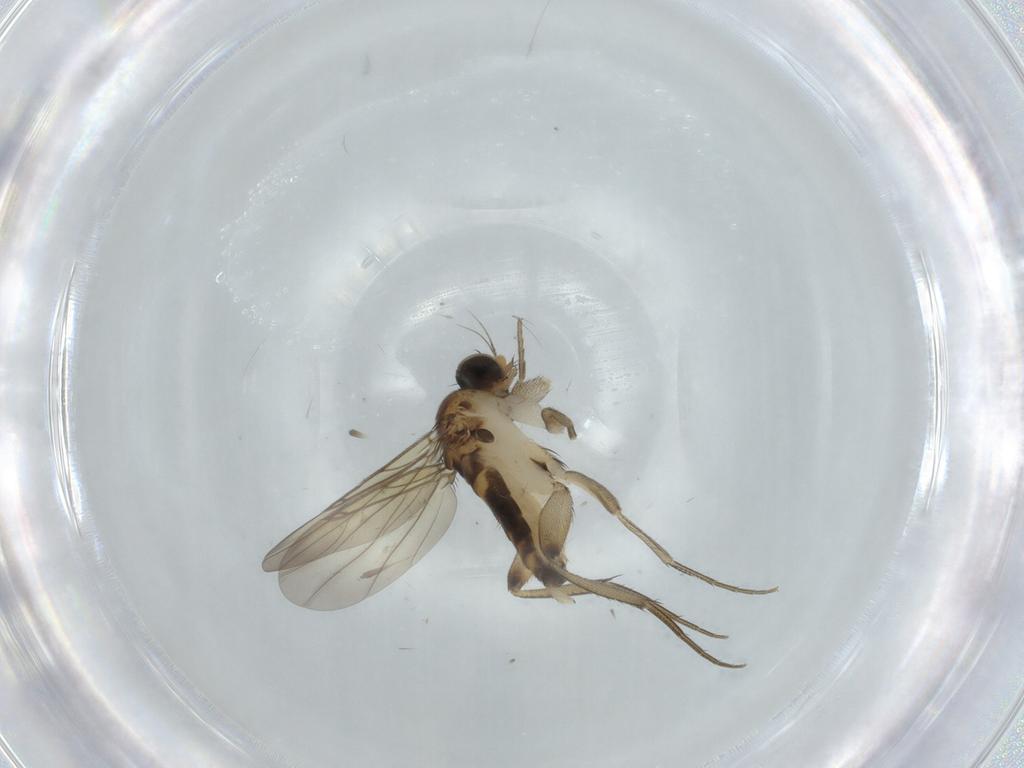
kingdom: Animalia
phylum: Arthropoda
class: Insecta
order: Diptera
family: Phoridae
